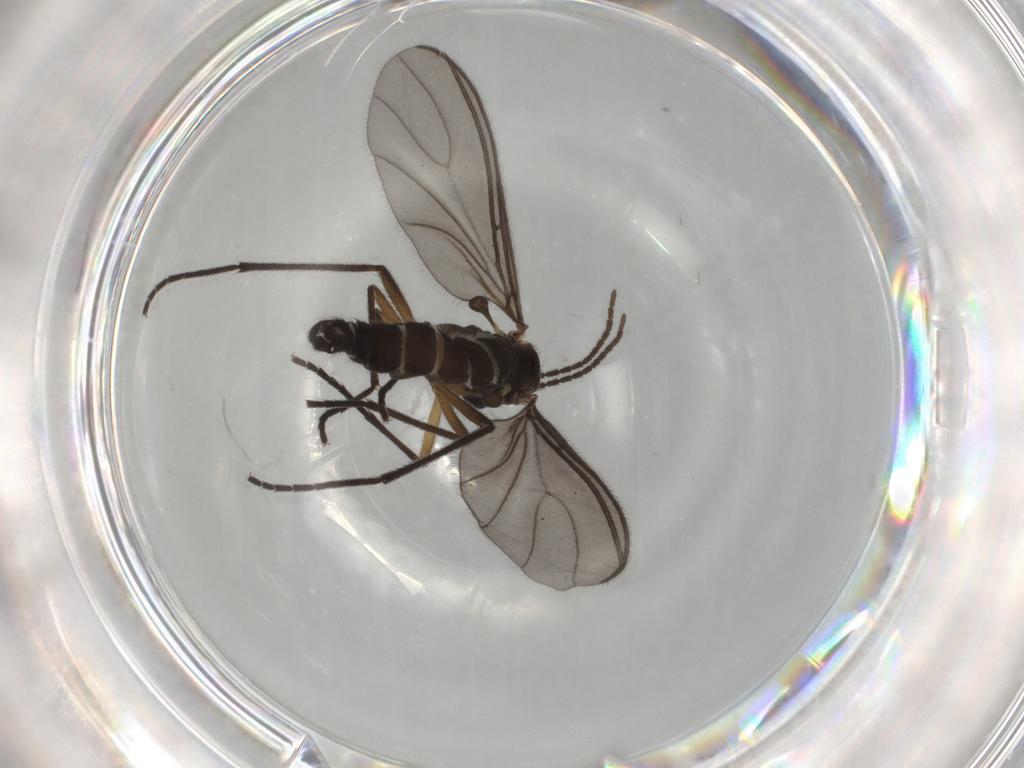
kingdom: Animalia
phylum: Arthropoda
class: Insecta
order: Diptera
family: Sciaridae
